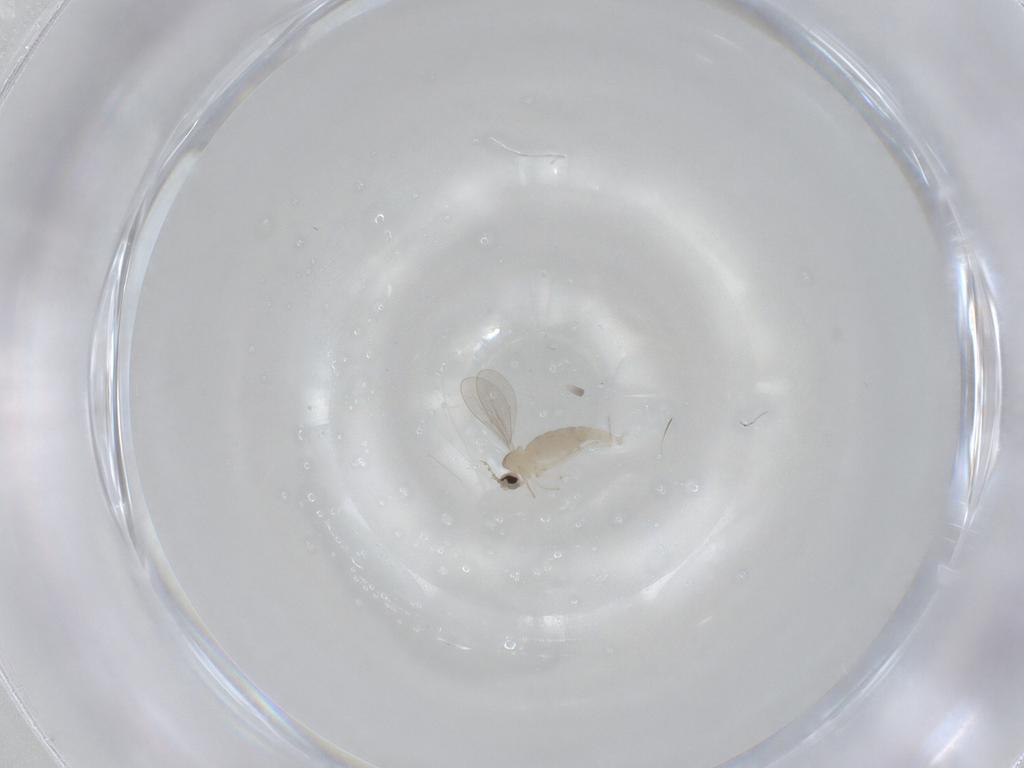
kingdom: Animalia
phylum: Arthropoda
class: Insecta
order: Diptera
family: Cecidomyiidae
